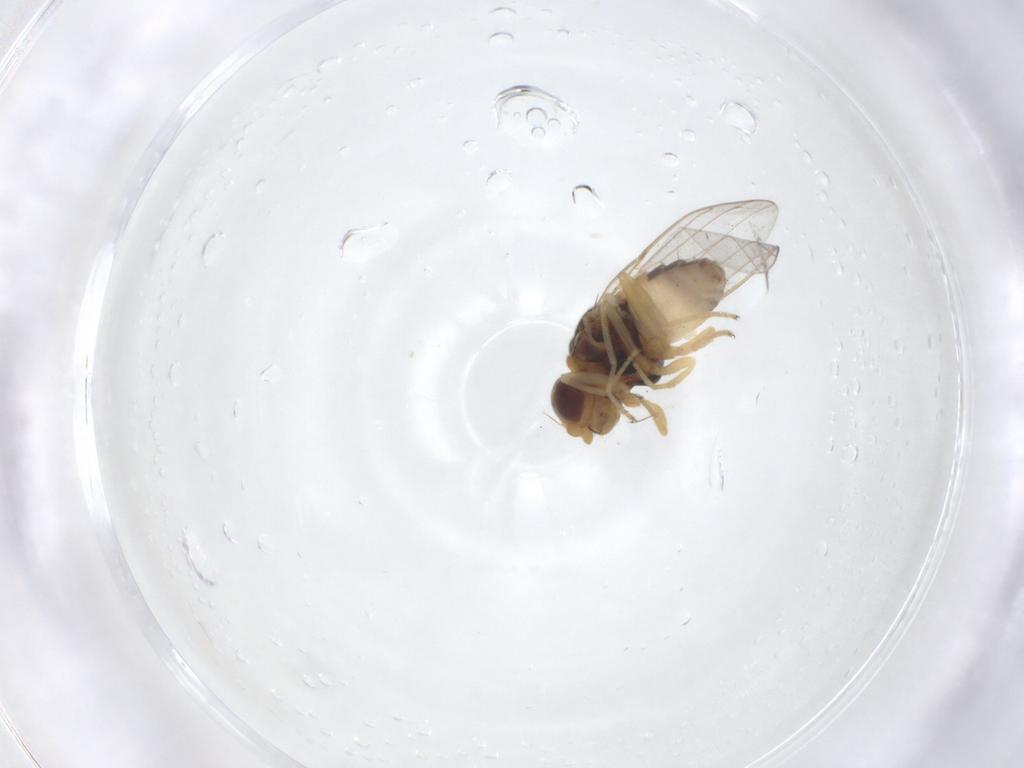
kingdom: Animalia
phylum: Arthropoda
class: Insecta
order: Diptera
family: Chloropidae
